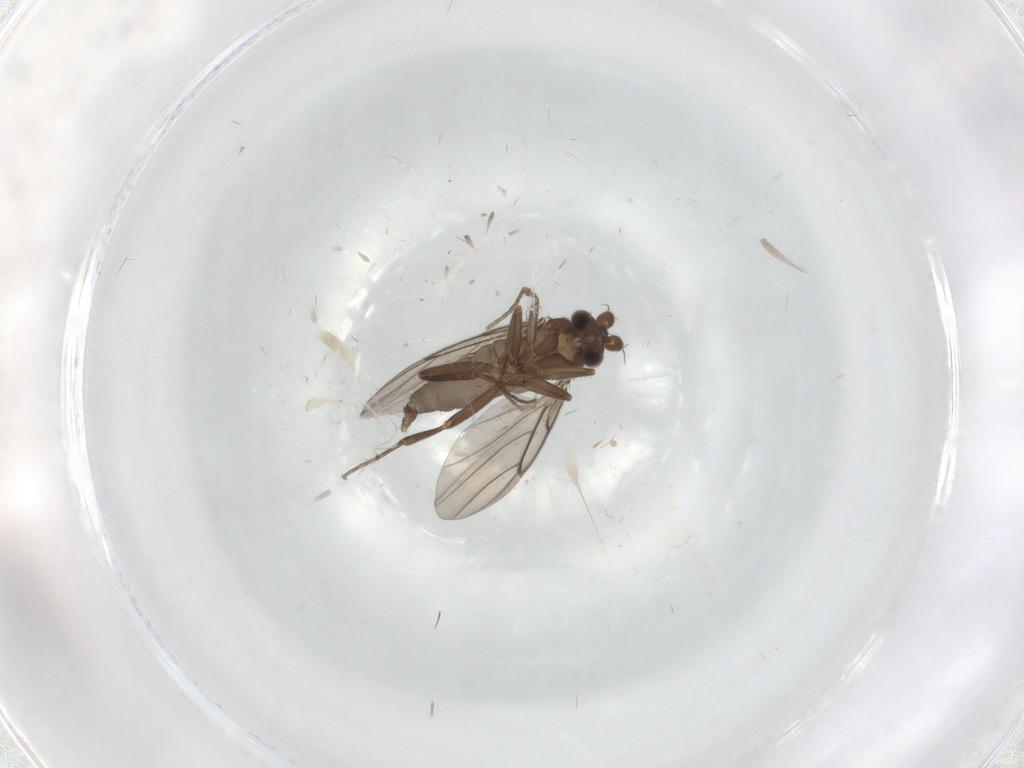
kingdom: Animalia
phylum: Arthropoda
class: Insecta
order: Diptera
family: Phoridae
